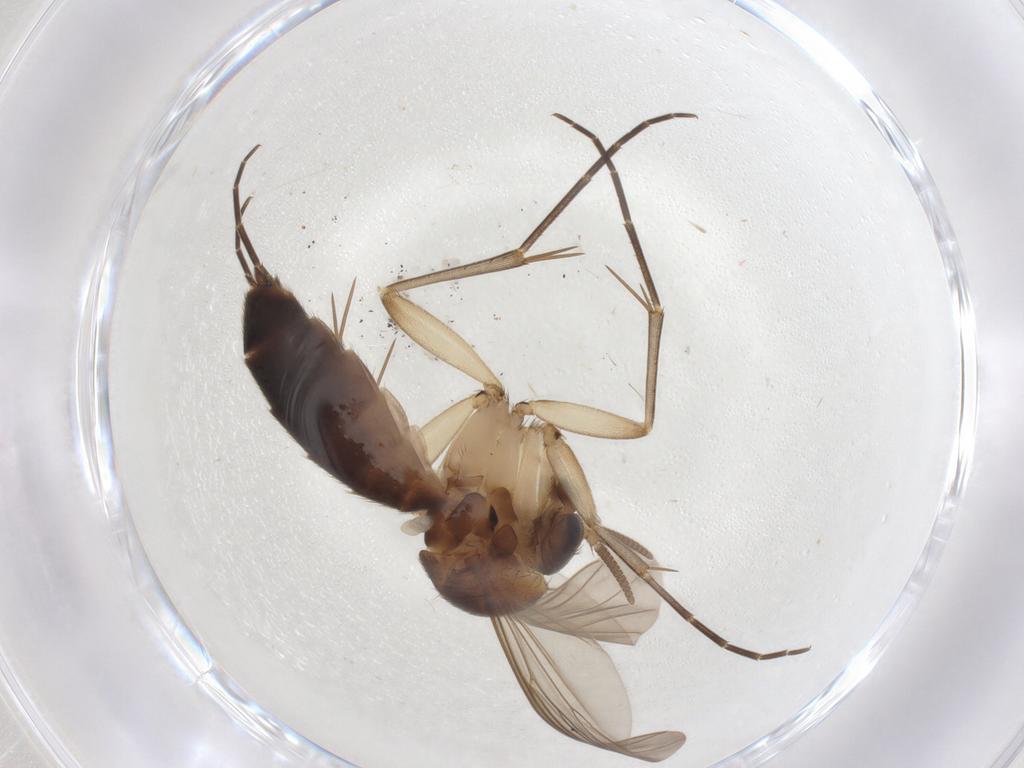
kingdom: Animalia
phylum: Arthropoda
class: Insecta
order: Diptera
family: Mycetophilidae
